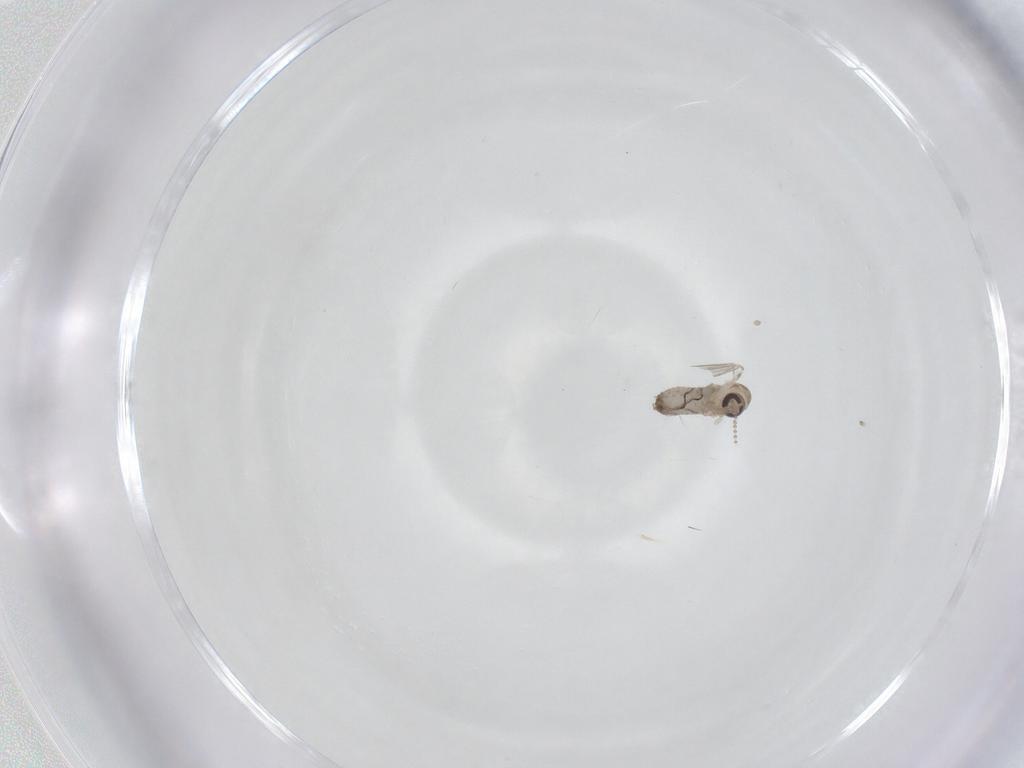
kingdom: Animalia
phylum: Arthropoda
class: Insecta
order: Diptera
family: Psychodidae
